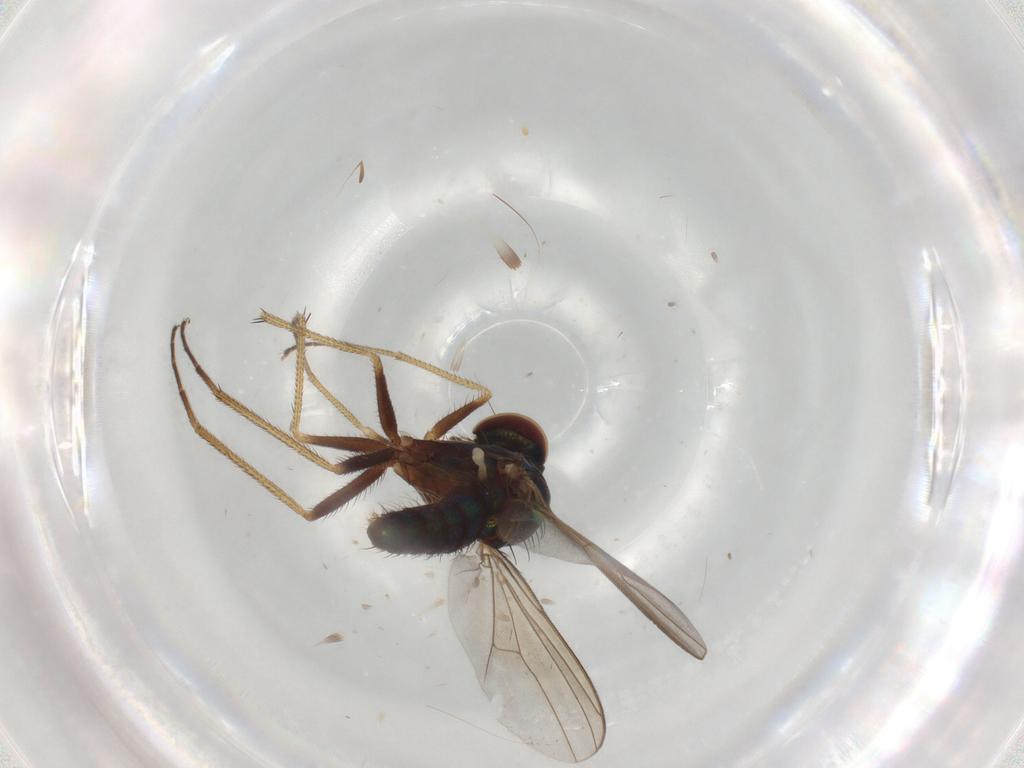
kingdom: Animalia
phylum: Arthropoda
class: Insecta
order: Diptera
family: Dolichopodidae
